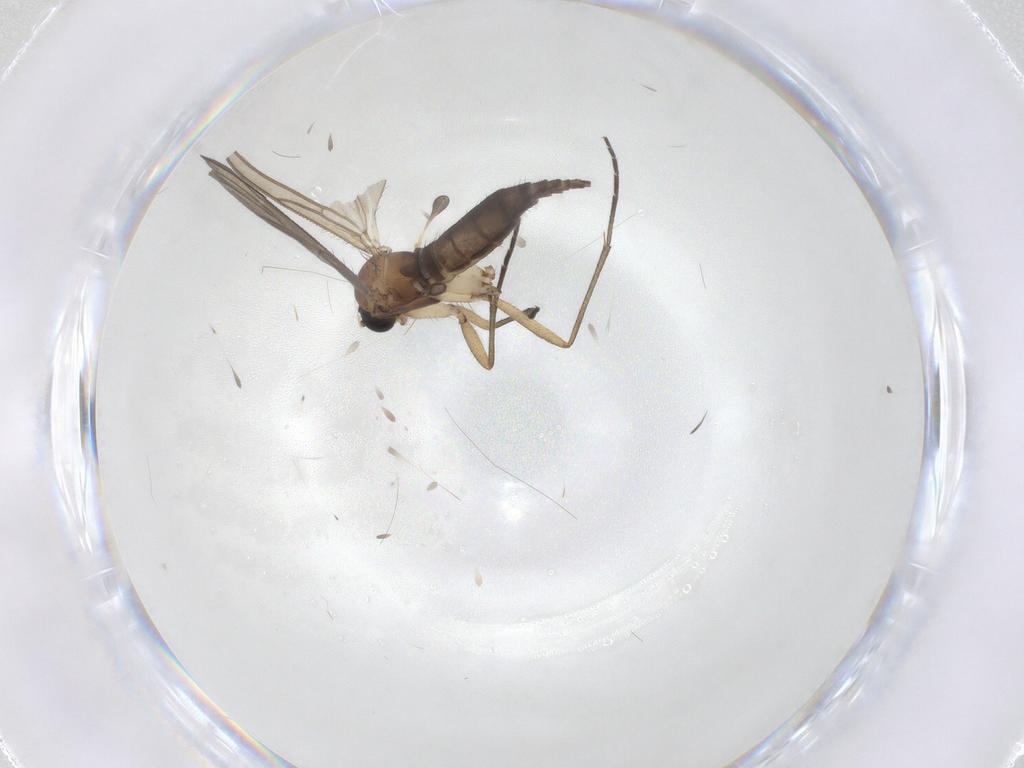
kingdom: Animalia
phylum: Arthropoda
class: Insecta
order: Diptera
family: Sciaridae
